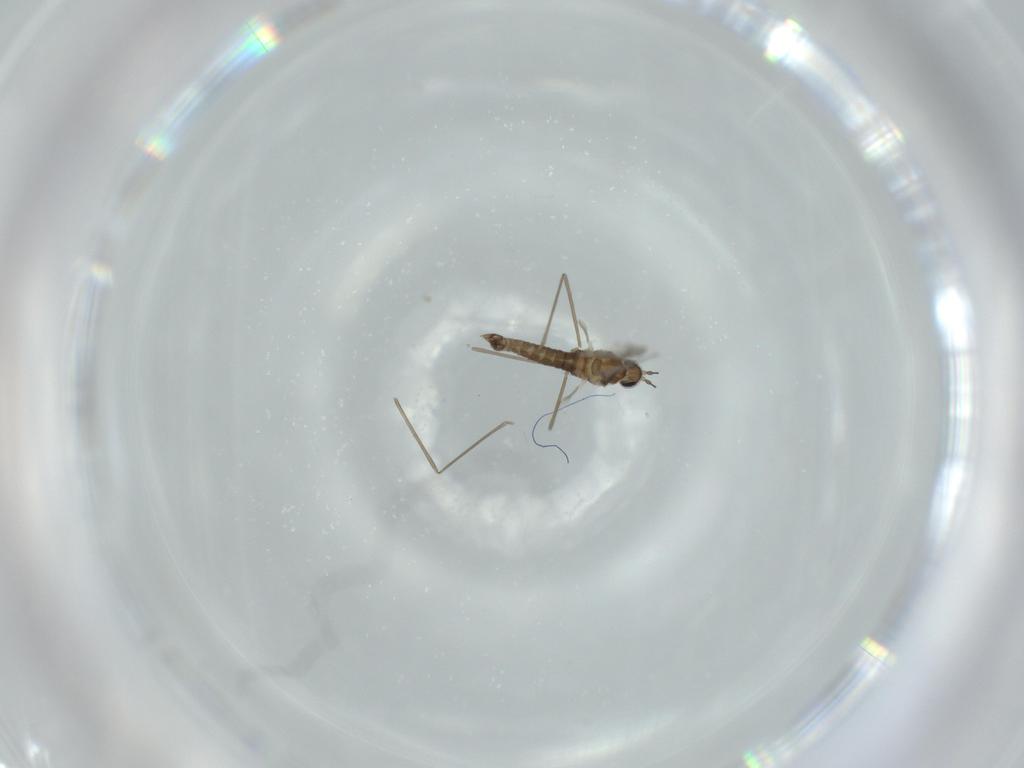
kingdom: Animalia
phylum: Arthropoda
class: Insecta
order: Diptera
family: Cecidomyiidae
